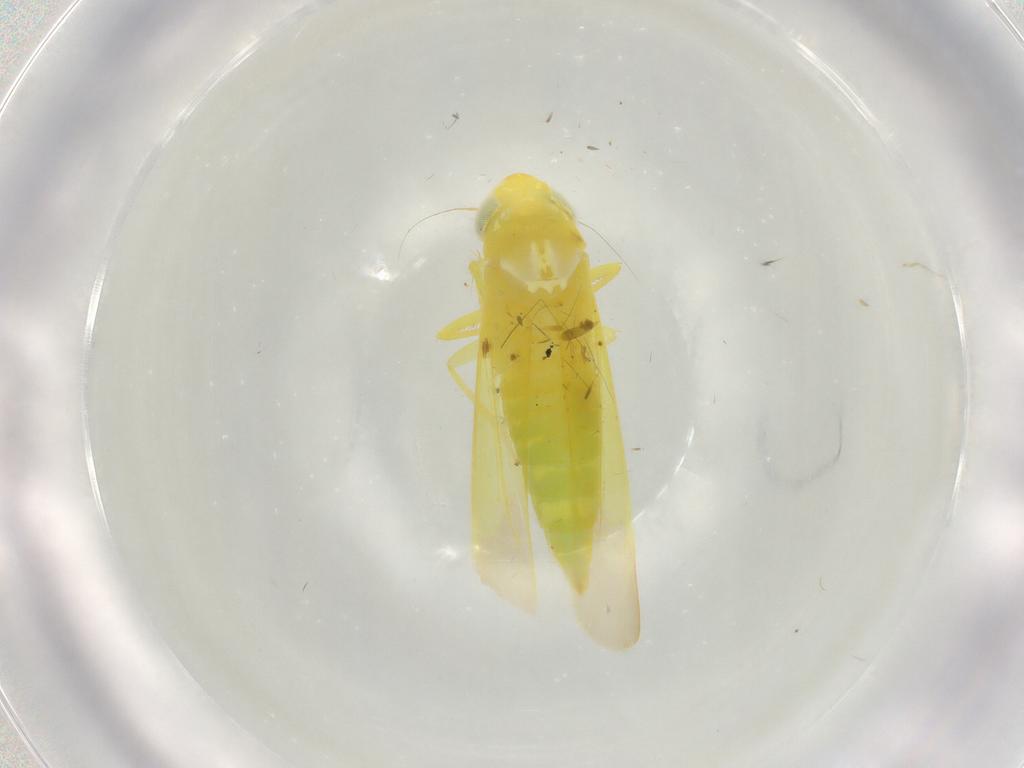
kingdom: Animalia
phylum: Arthropoda
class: Insecta
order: Hemiptera
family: Cicadellidae
